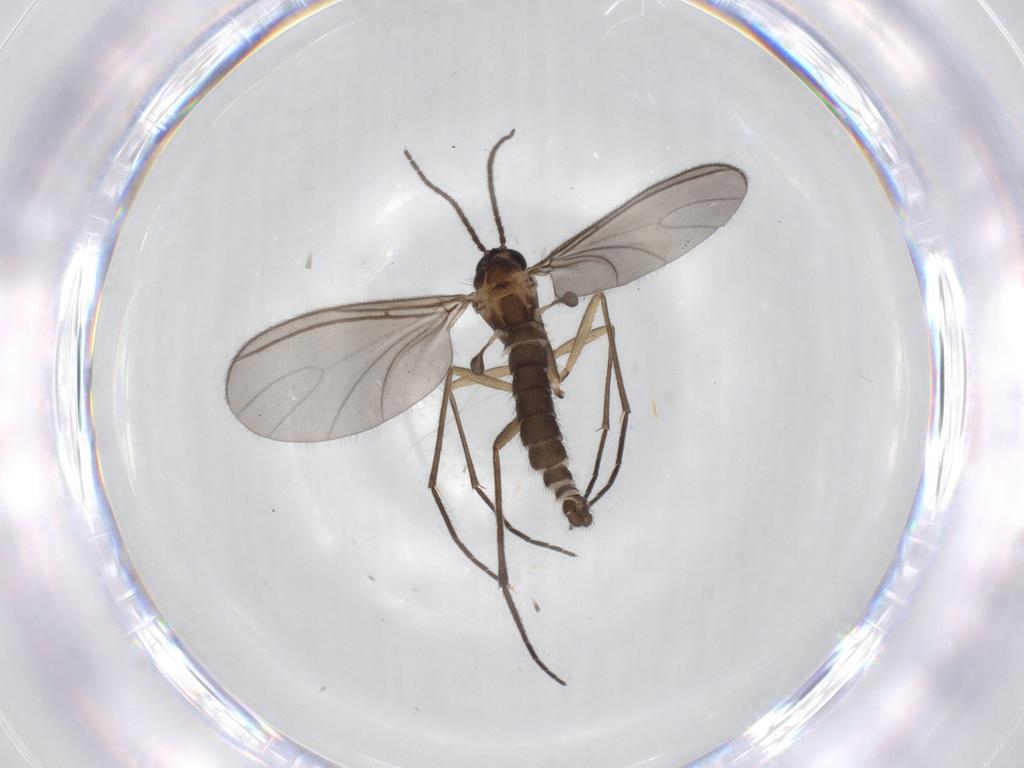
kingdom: Animalia
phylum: Arthropoda
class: Insecta
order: Diptera
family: Sciaridae
